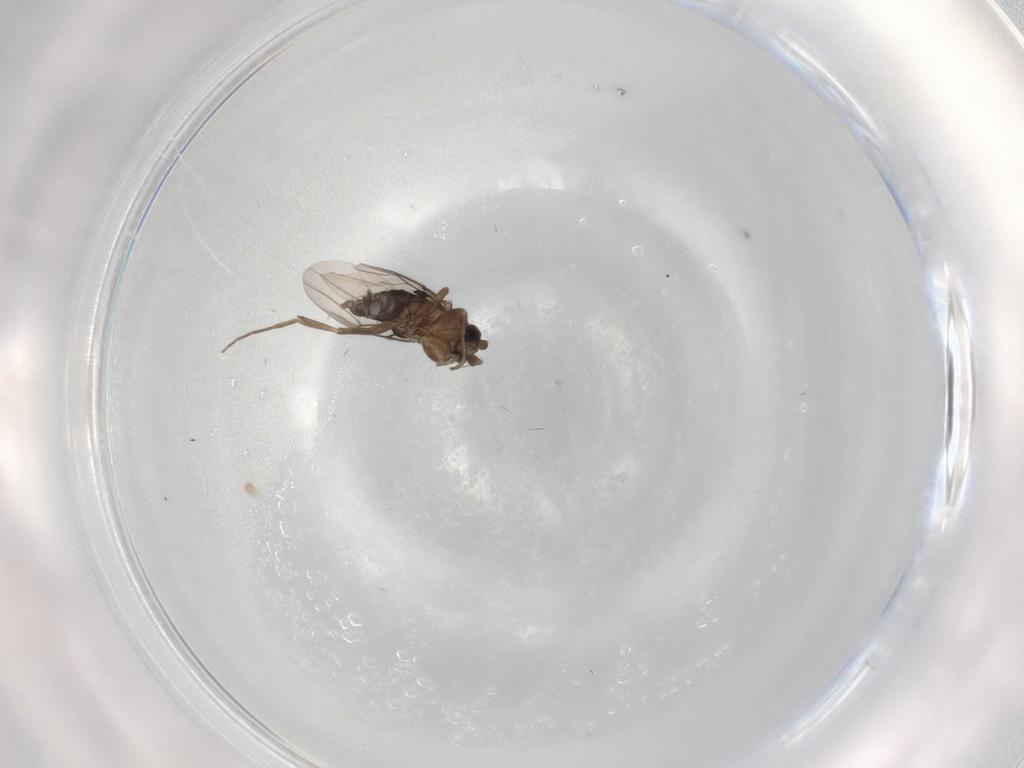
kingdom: Animalia
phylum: Arthropoda
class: Insecta
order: Diptera
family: Phoridae
